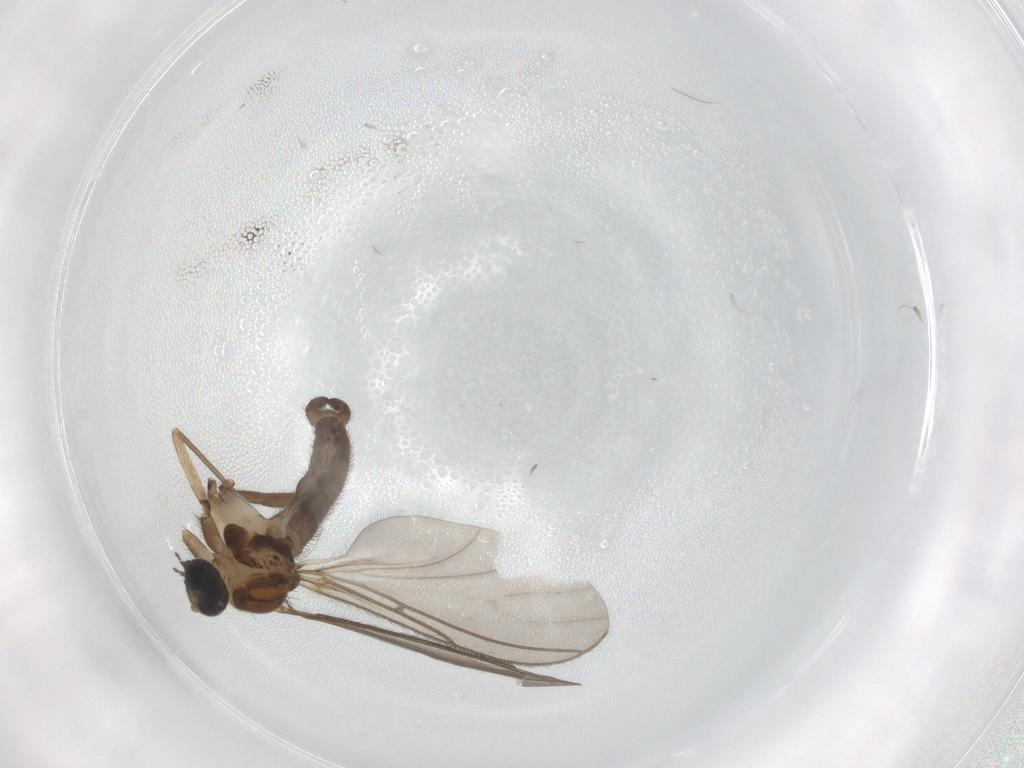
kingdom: Animalia
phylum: Arthropoda
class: Insecta
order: Diptera
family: Sciaridae
